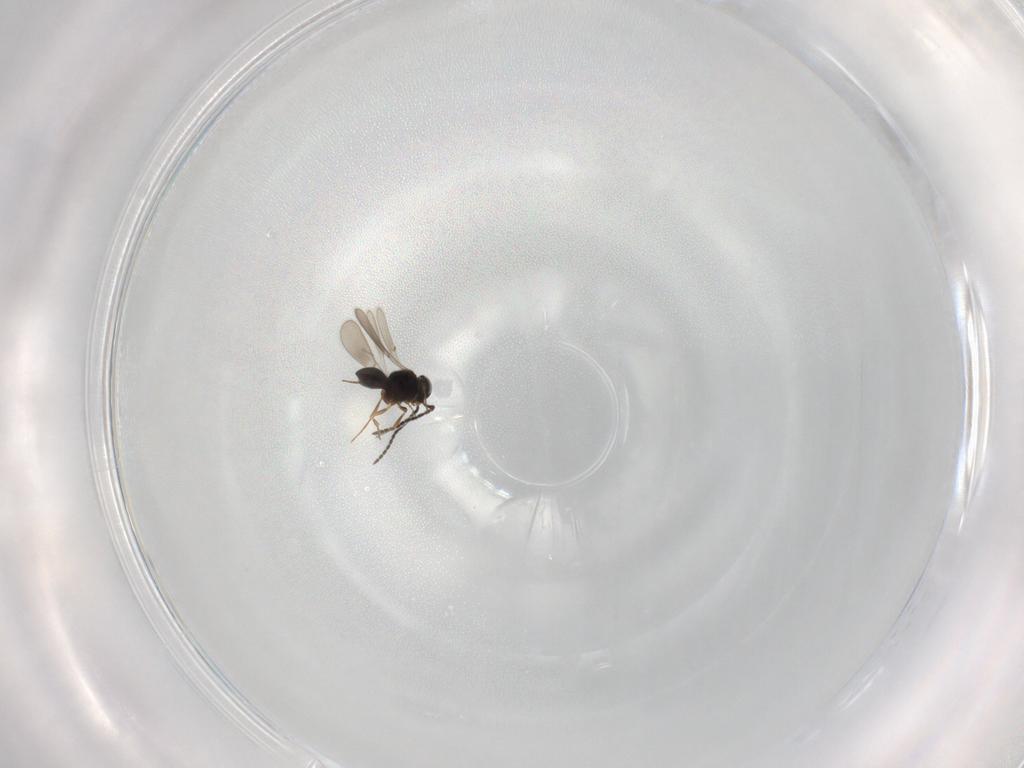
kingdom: Animalia
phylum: Arthropoda
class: Insecta
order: Hymenoptera
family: Scelionidae
